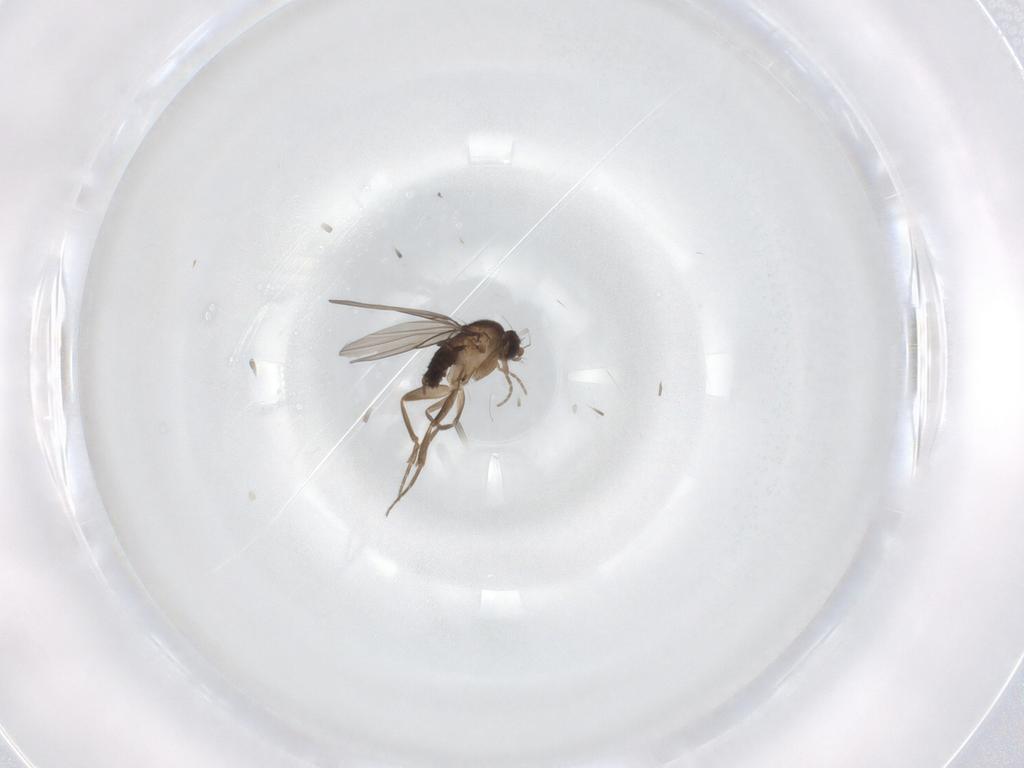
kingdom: Animalia
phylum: Arthropoda
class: Insecta
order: Diptera
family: Phoridae
